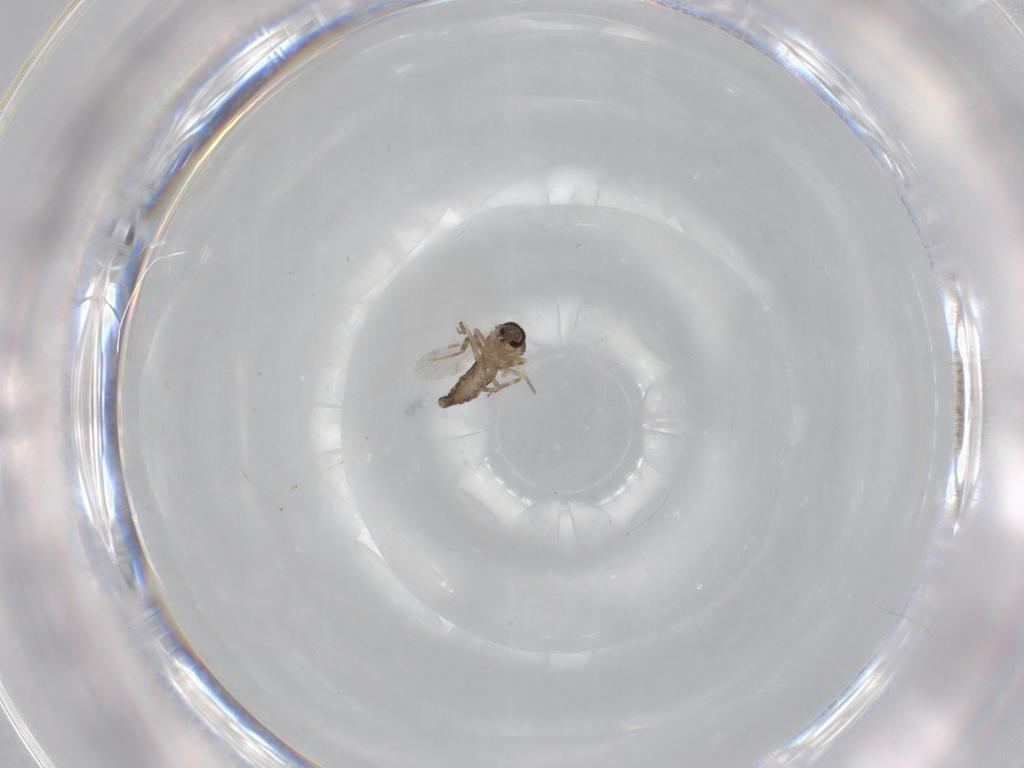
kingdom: Animalia
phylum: Arthropoda
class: Insecta
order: Diptera
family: Ceratopogonidae
